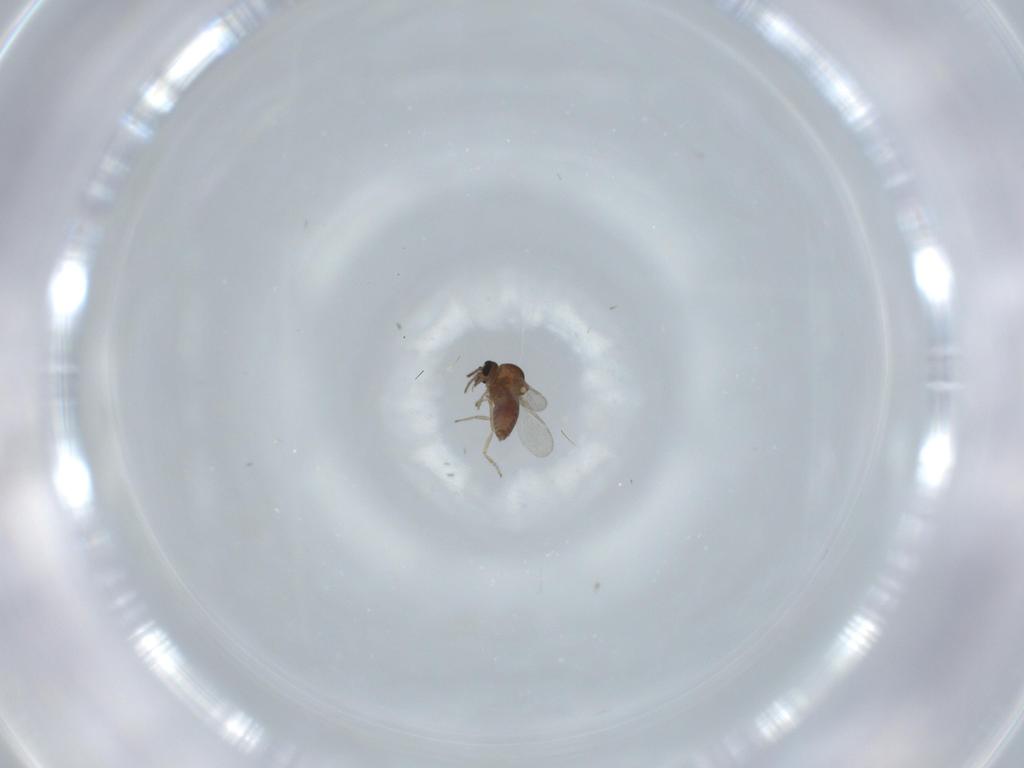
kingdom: Animalia
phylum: Arthropoda
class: Insecta
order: Diptera
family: Ceratopogonidae
